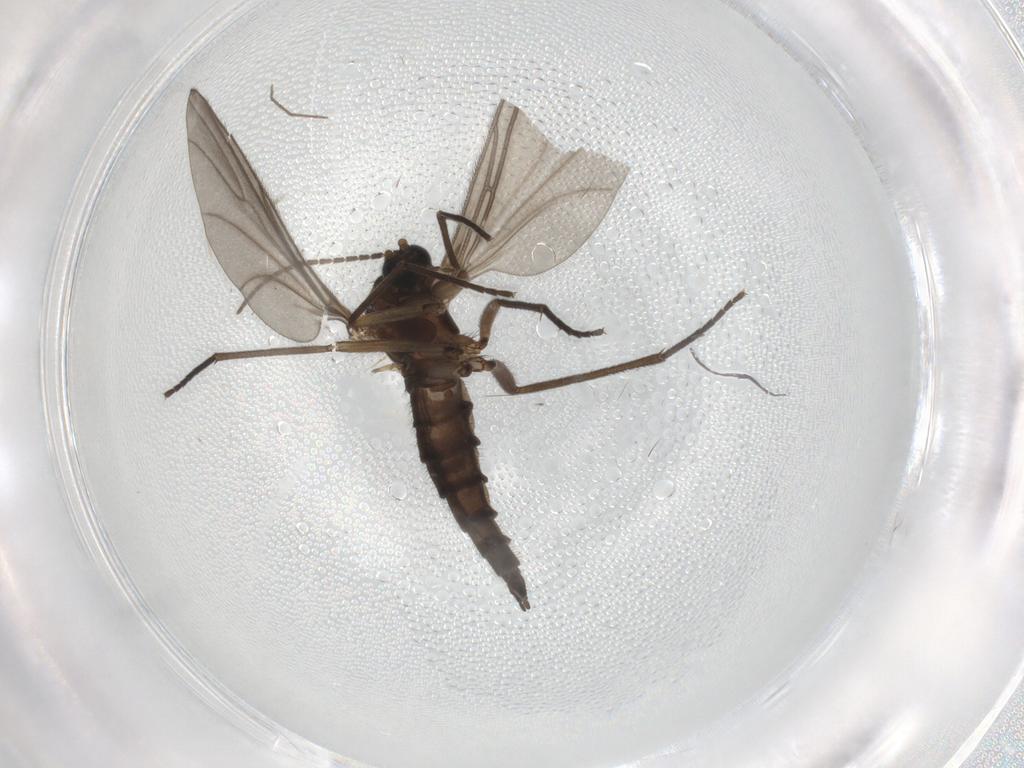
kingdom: Animalia
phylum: Arthropoda
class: Insecta
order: Diptera
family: Sciaridae
